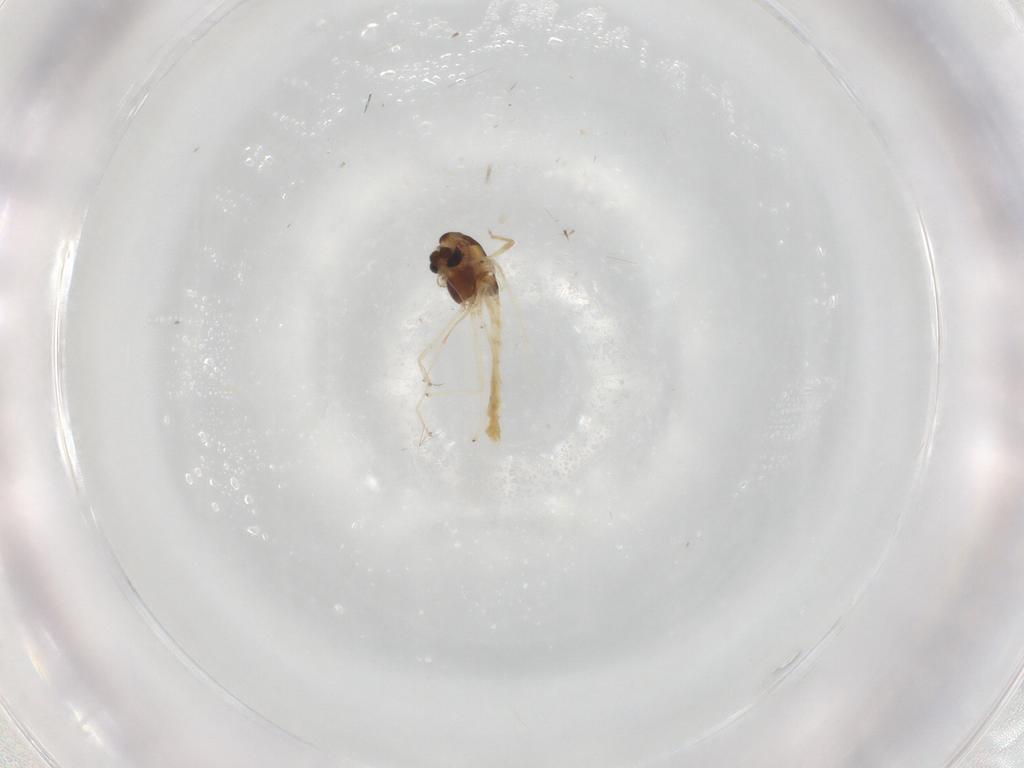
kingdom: Animalia
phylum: Arthropoda
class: Insecta
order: Diptera
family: Chironomidae
